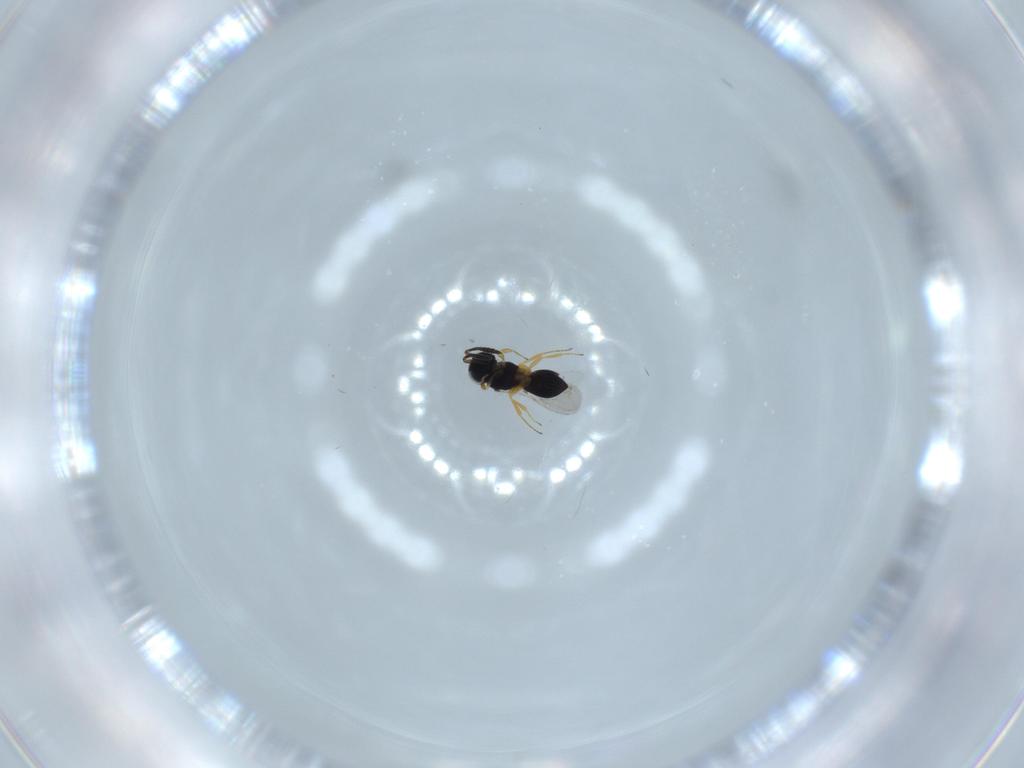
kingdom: Animalia
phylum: Arthropoda
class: Insecta
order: Hymenoptera
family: Scelionidae
